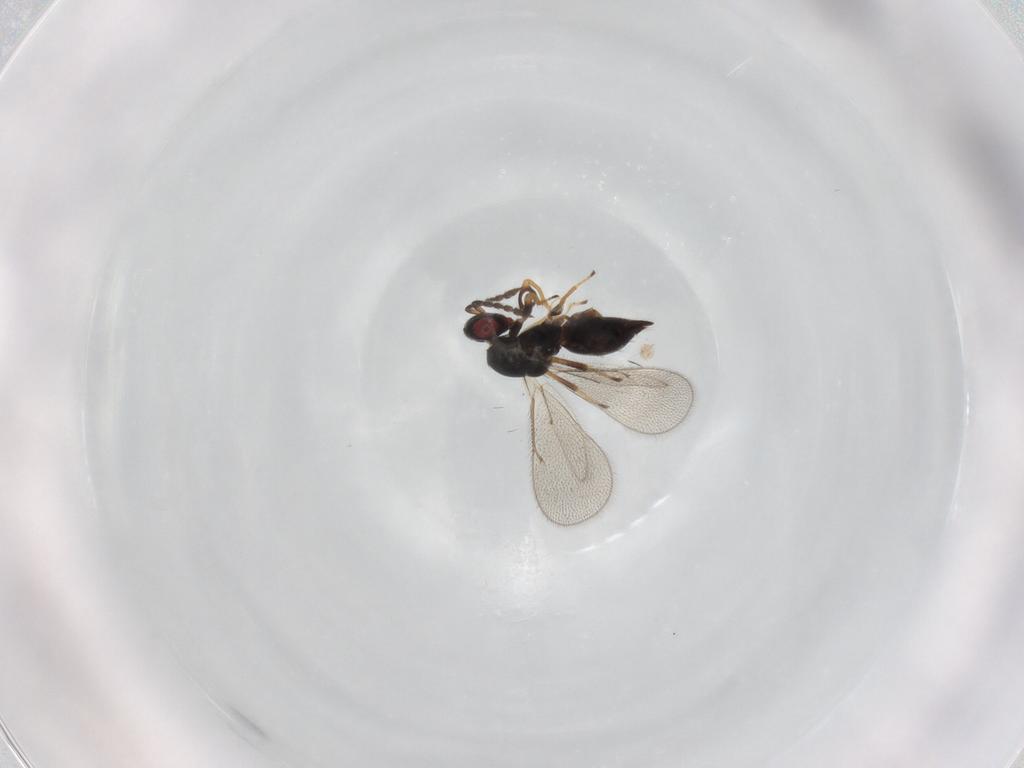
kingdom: Animalia
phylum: Arthropoda
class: Insecta
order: Hymenoptera
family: Eulophidae
